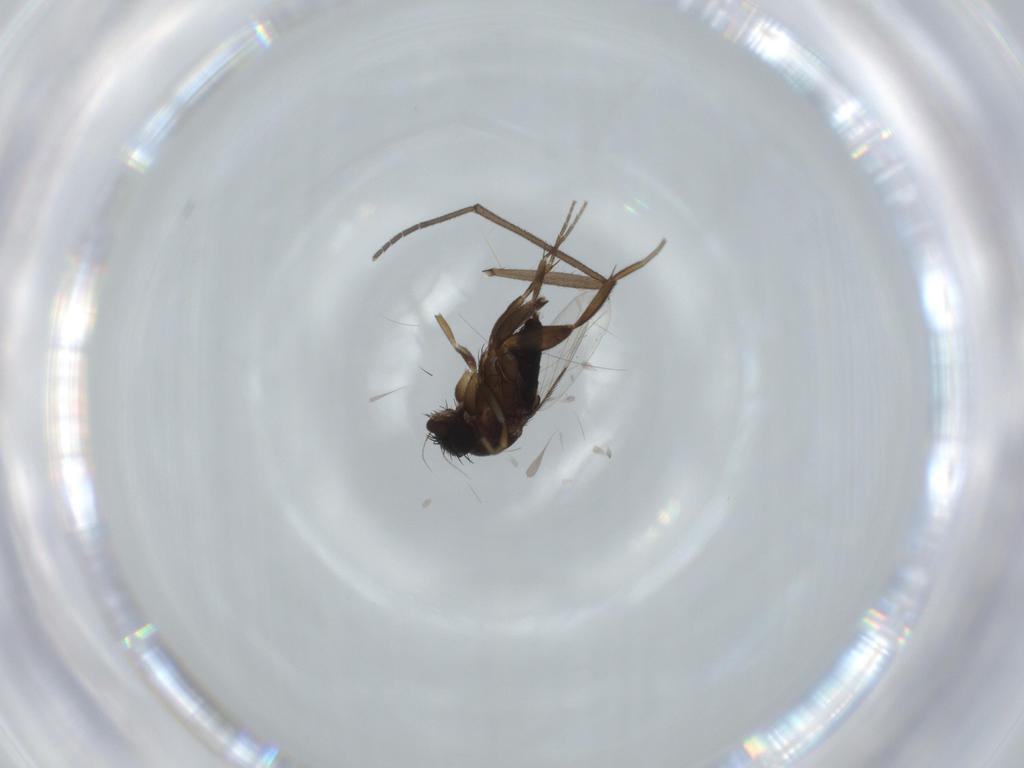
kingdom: Animalia
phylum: Arthropoda
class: Insecta
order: Diptera
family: Phoridae
